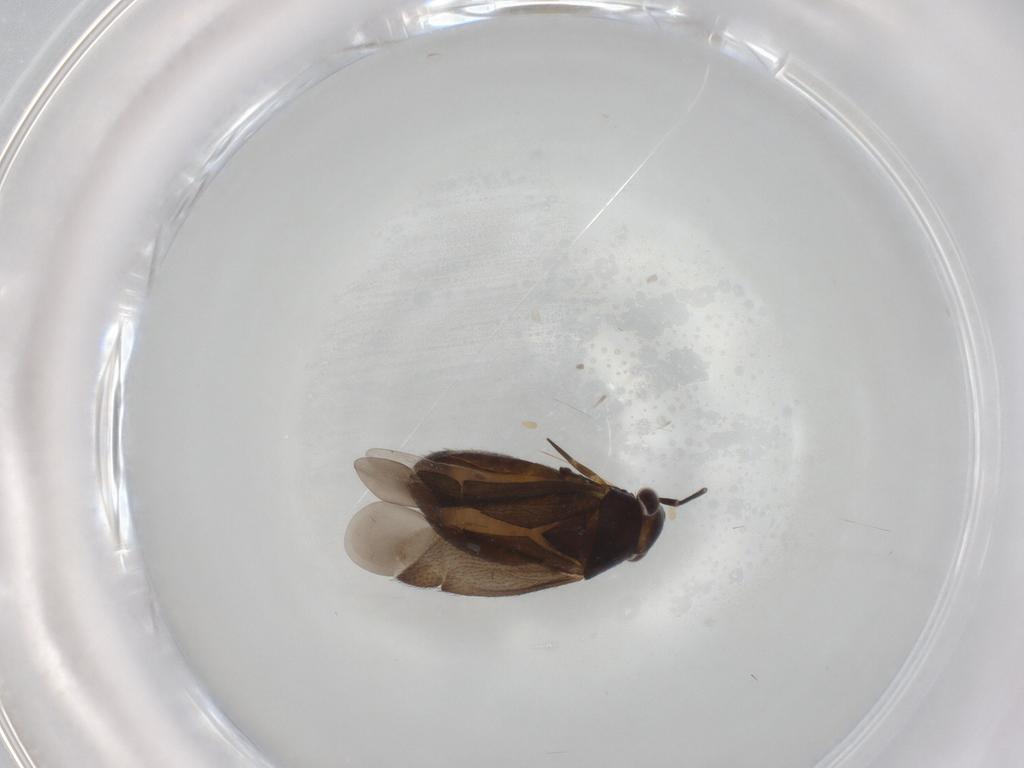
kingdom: Animalia
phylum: Arthropoda
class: Insecta
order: Hemiptera
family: Miridae
